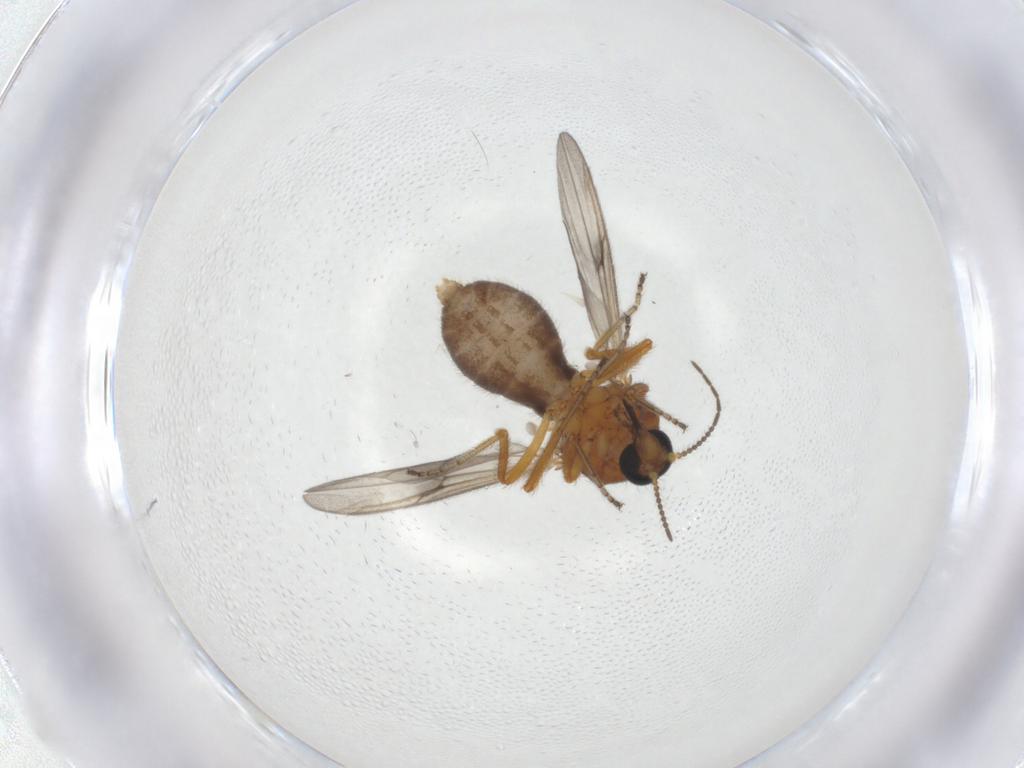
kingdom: Animalia
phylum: Arthropoda
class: Insecta
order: Diptera
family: Ceratopogonidae
